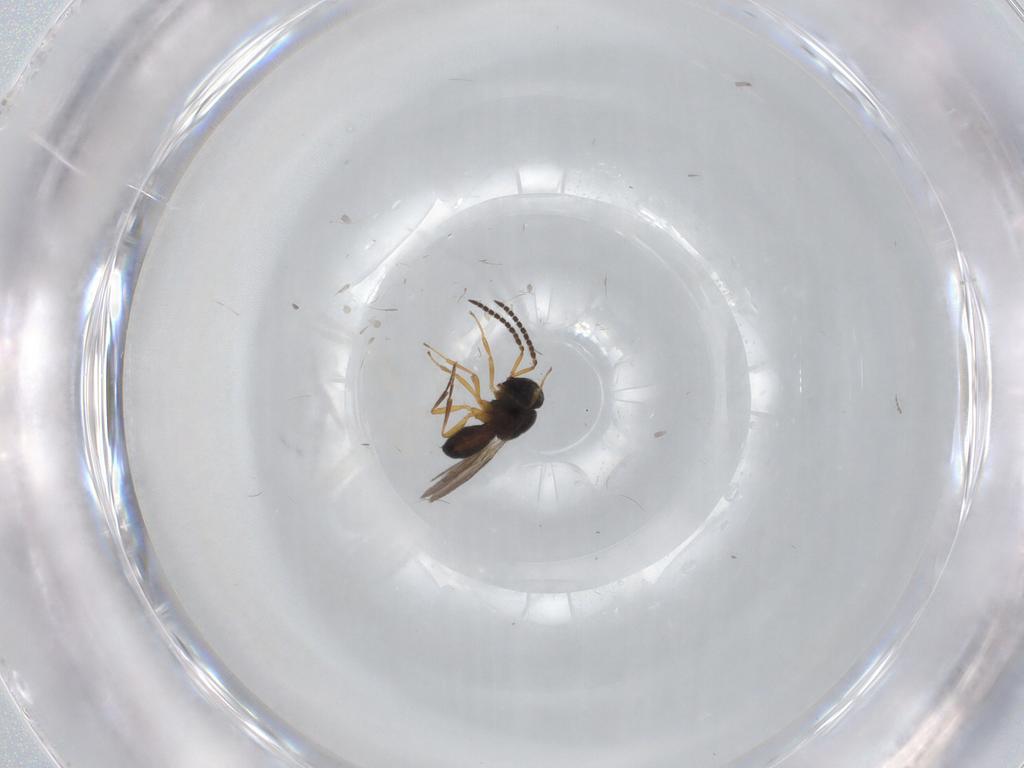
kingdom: Animalia
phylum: Arthropoda
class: Insecta
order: Hymenoptera
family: Scelionidae
